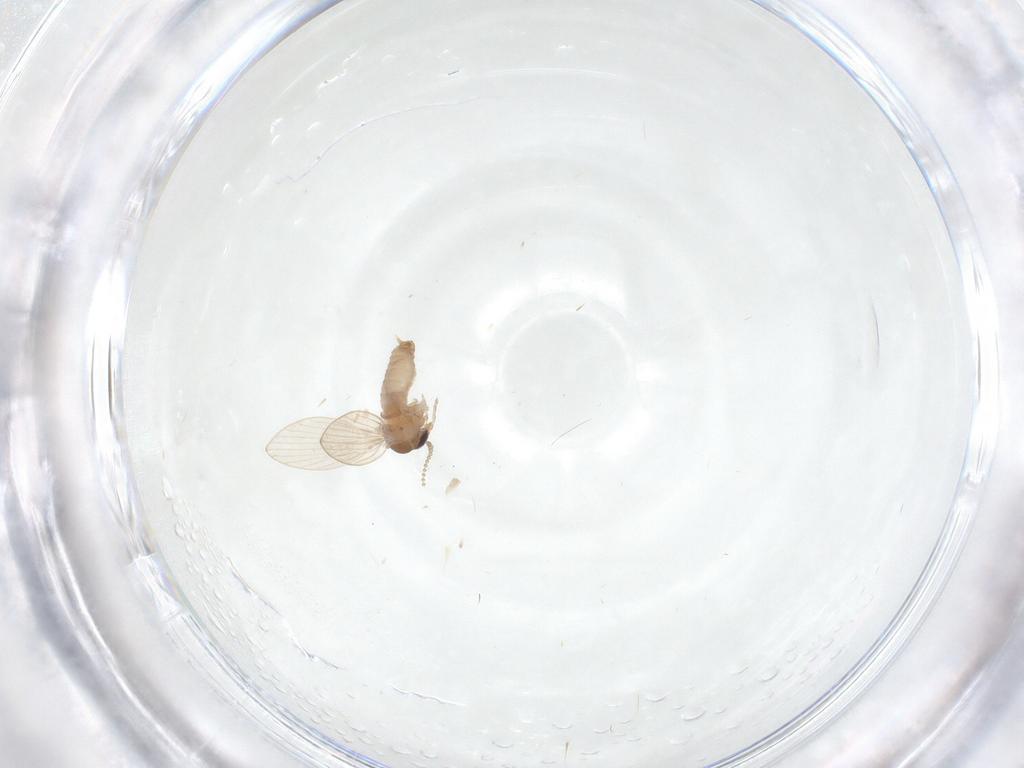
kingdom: Animalia
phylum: Arthropoda
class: Insecta
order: Diptera
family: Psychodidae
